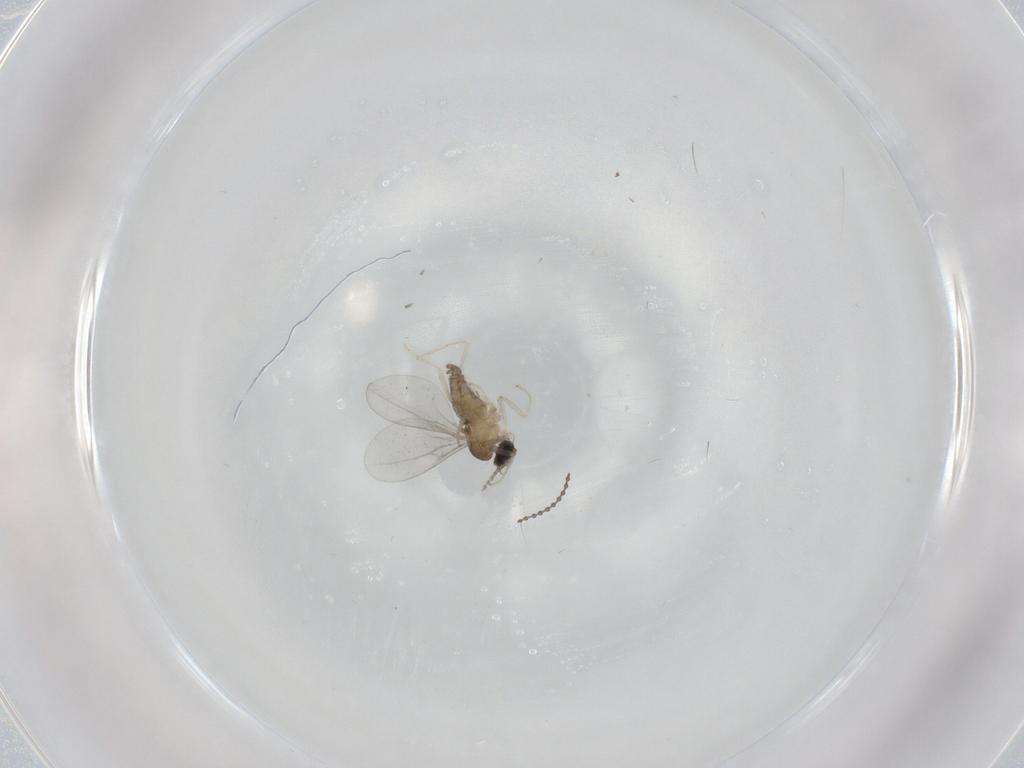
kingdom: Animalia
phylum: Arthropoda
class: Insecta
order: Diptera
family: Cecidomyiidae
